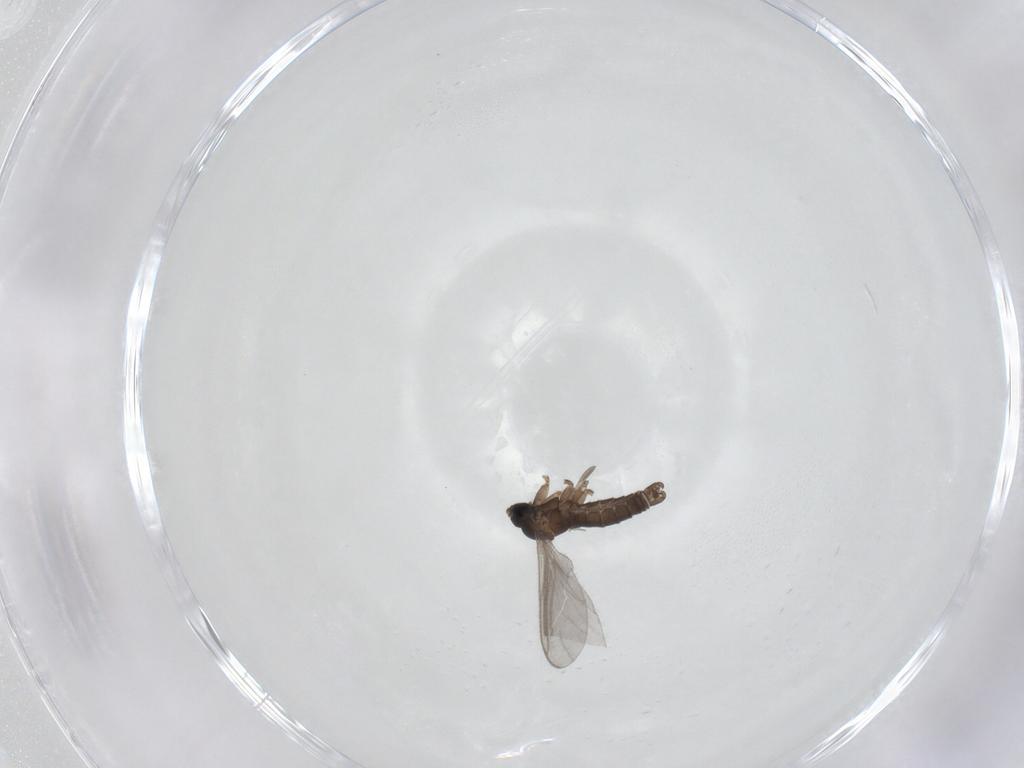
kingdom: Animalia
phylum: Arthropoda
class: Insecta
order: Diptera
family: Sciaridae
